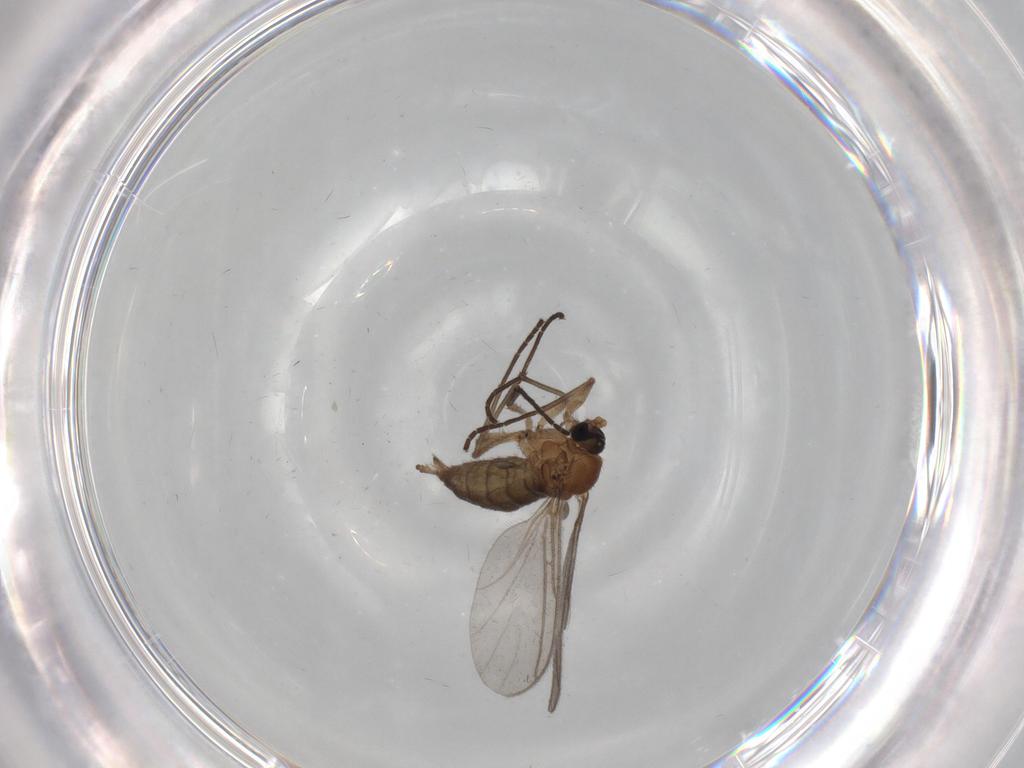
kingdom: Animalia
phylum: Arthropoda
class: Insecta
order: Diptera
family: Sciaridae
